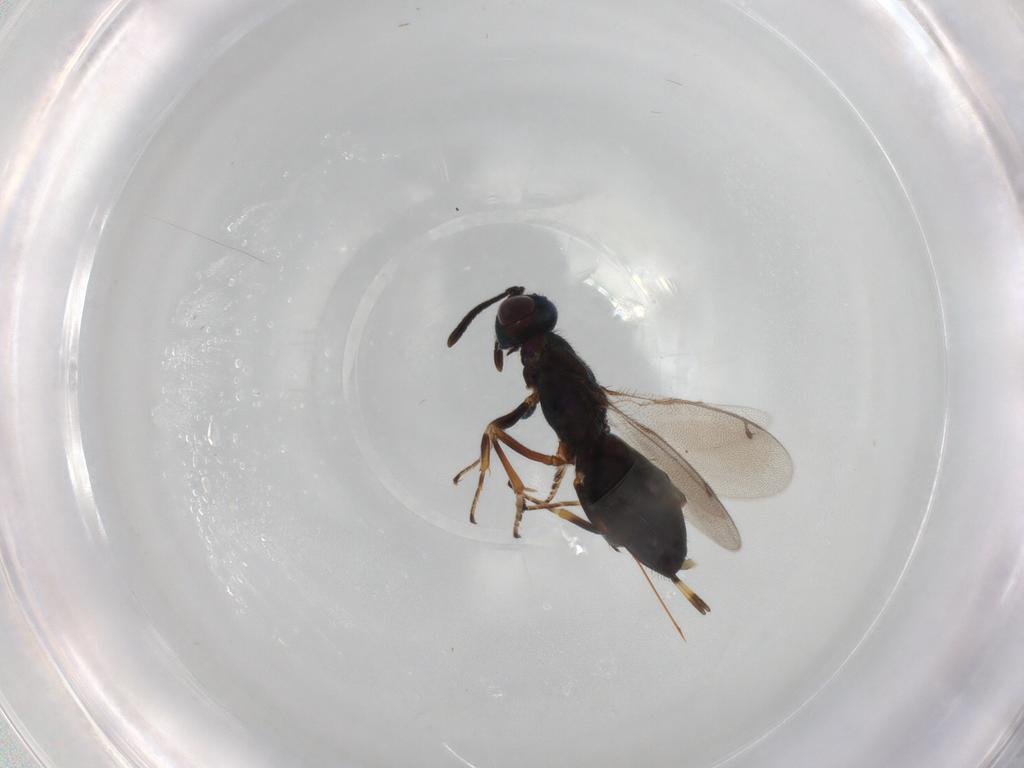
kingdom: Animalia
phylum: Arthropoda
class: Insecta
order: Hymenoptera
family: Eupelmidae
